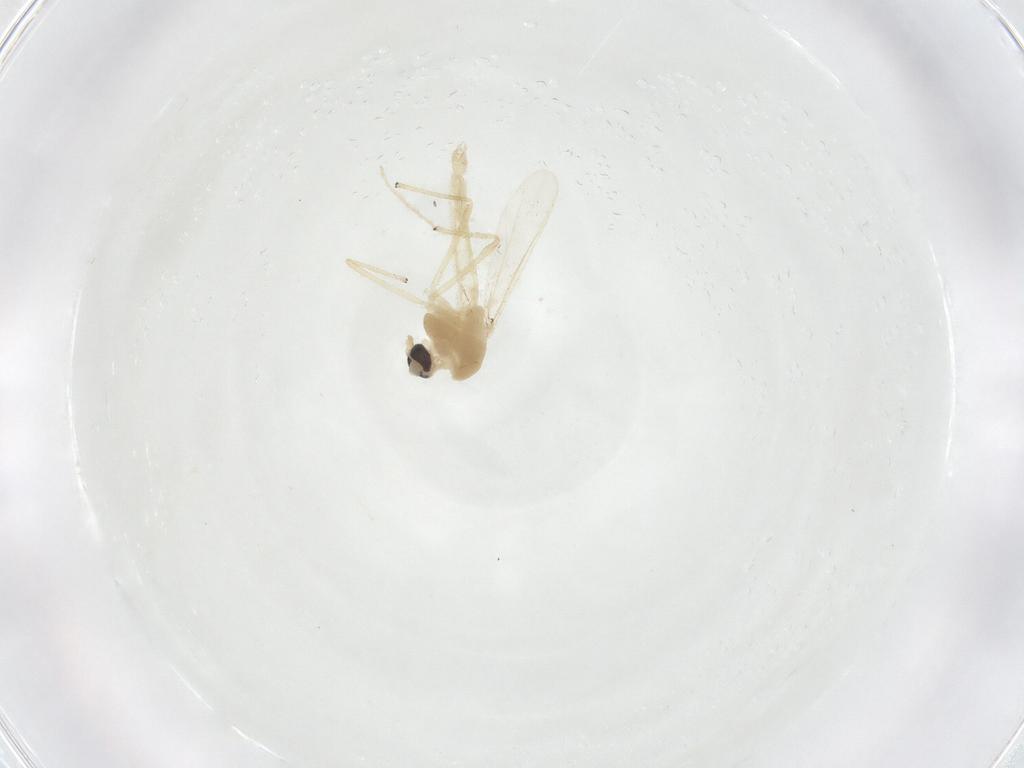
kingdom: Animalia
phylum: Arthropoda
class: Insecta
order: Diptera
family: Chironomidae
